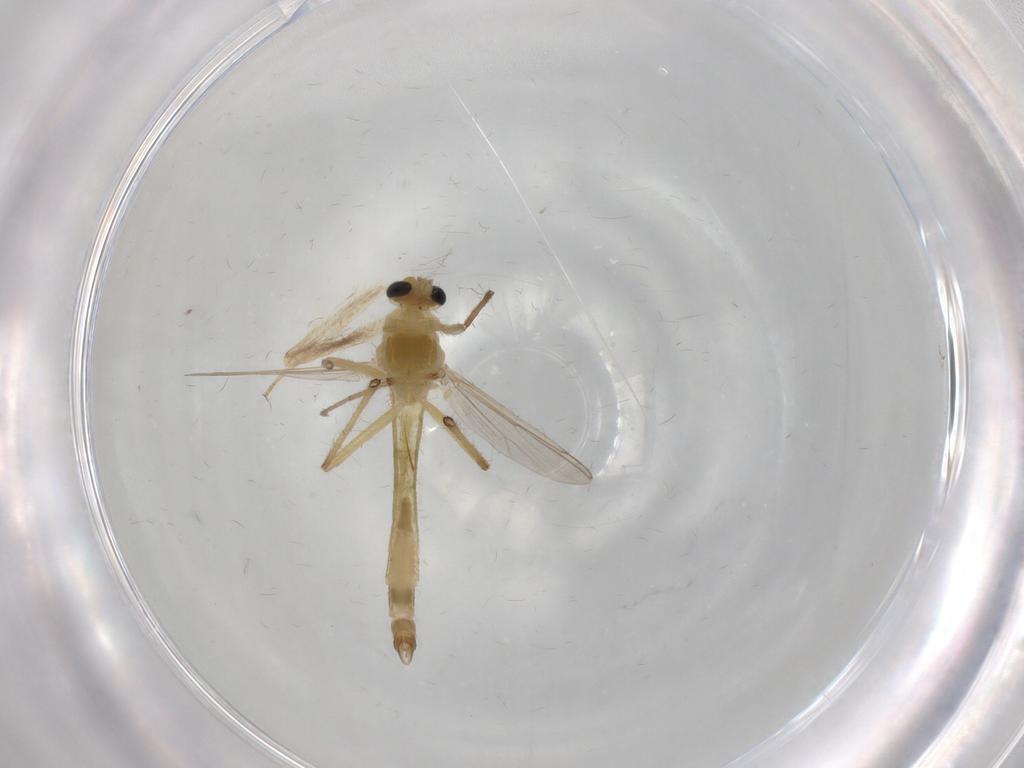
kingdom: Animalia
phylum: Arthropoda
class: Insecta
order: Diptera
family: Chironomidae
